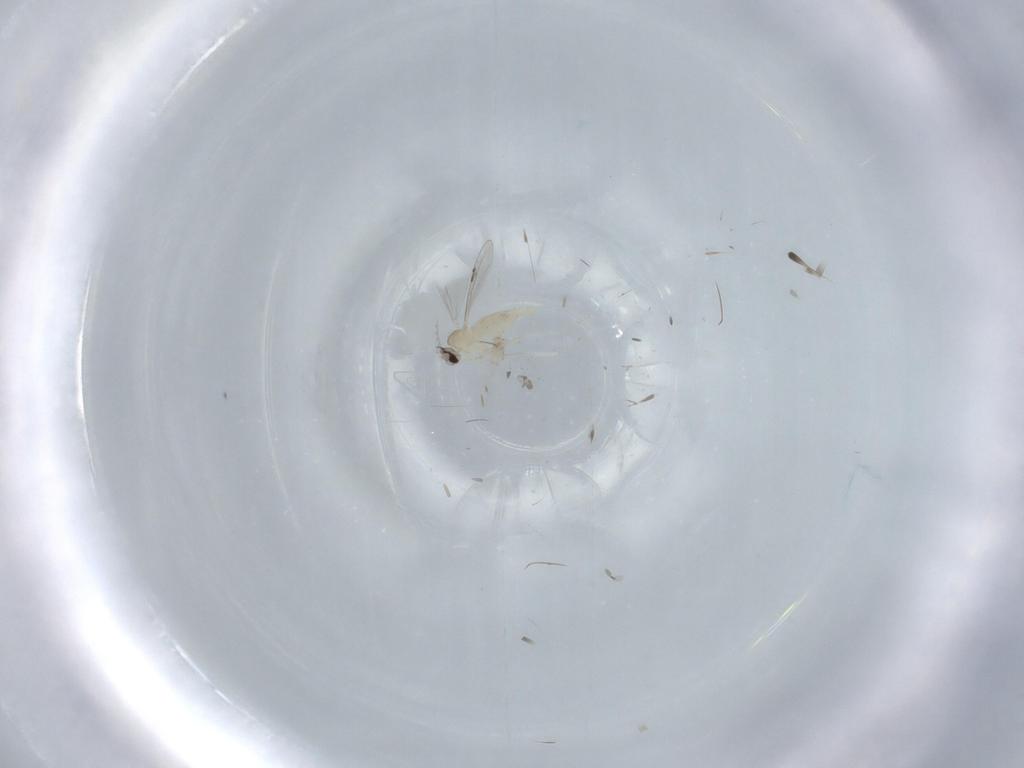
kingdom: Animalia
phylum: Arthropoda
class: Insecta
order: Diptera
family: Cecidomyiidae
